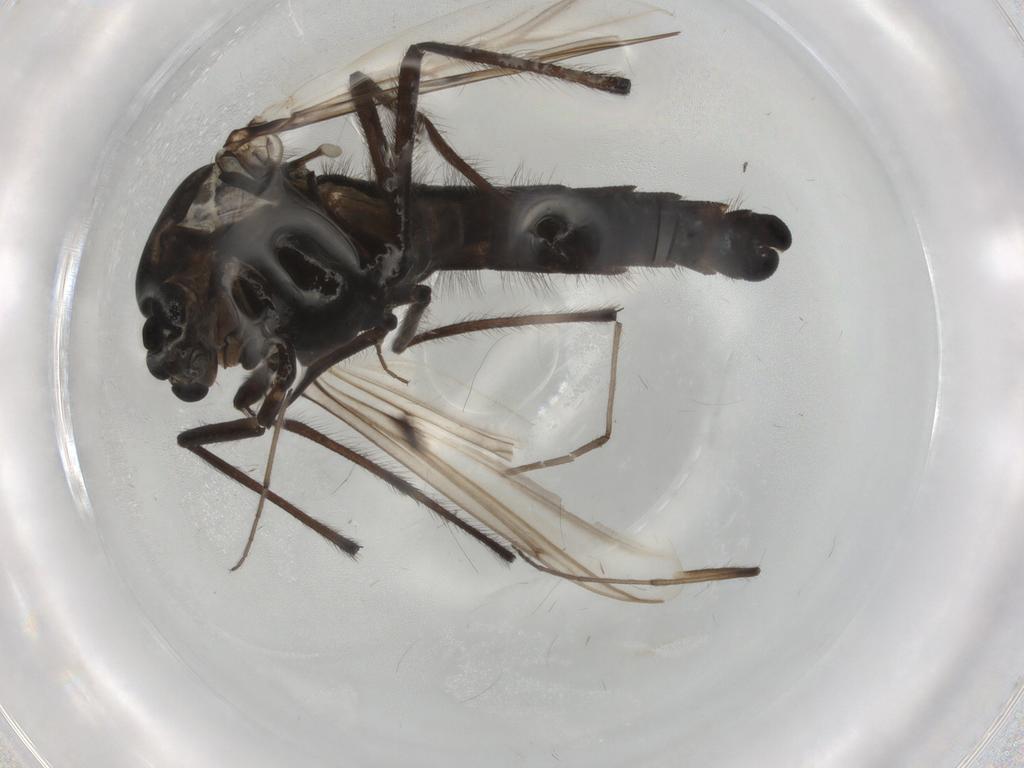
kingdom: Animalia
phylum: Arthropoda
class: Insecta
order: Diptera
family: Chironomidae
